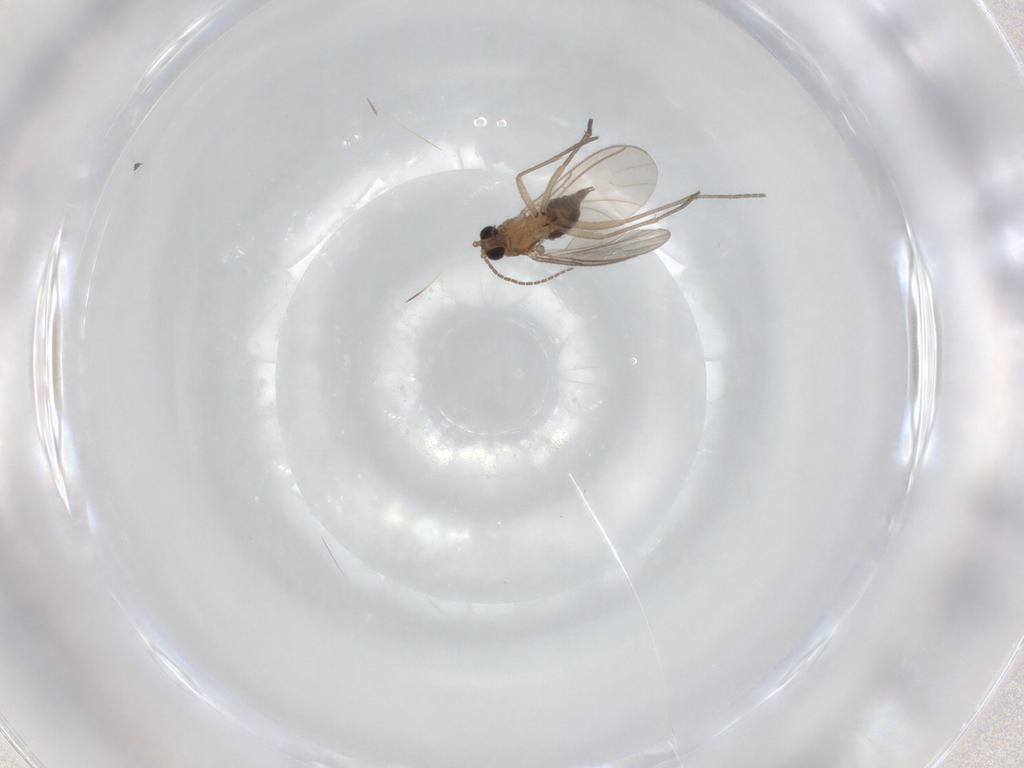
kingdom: Animalia
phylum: Arthropoda
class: Insecta
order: Diptera
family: Sciaridae
